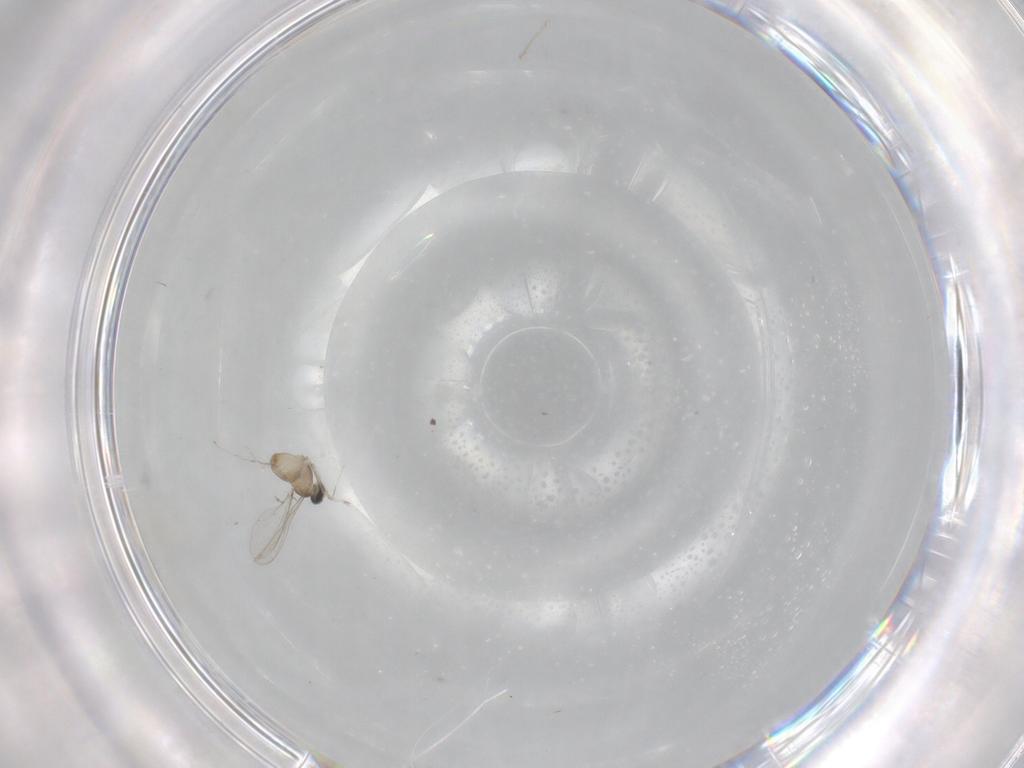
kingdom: Animalia
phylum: Arthropoda
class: Insecta
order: Diptera
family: Cecidomyiidae
